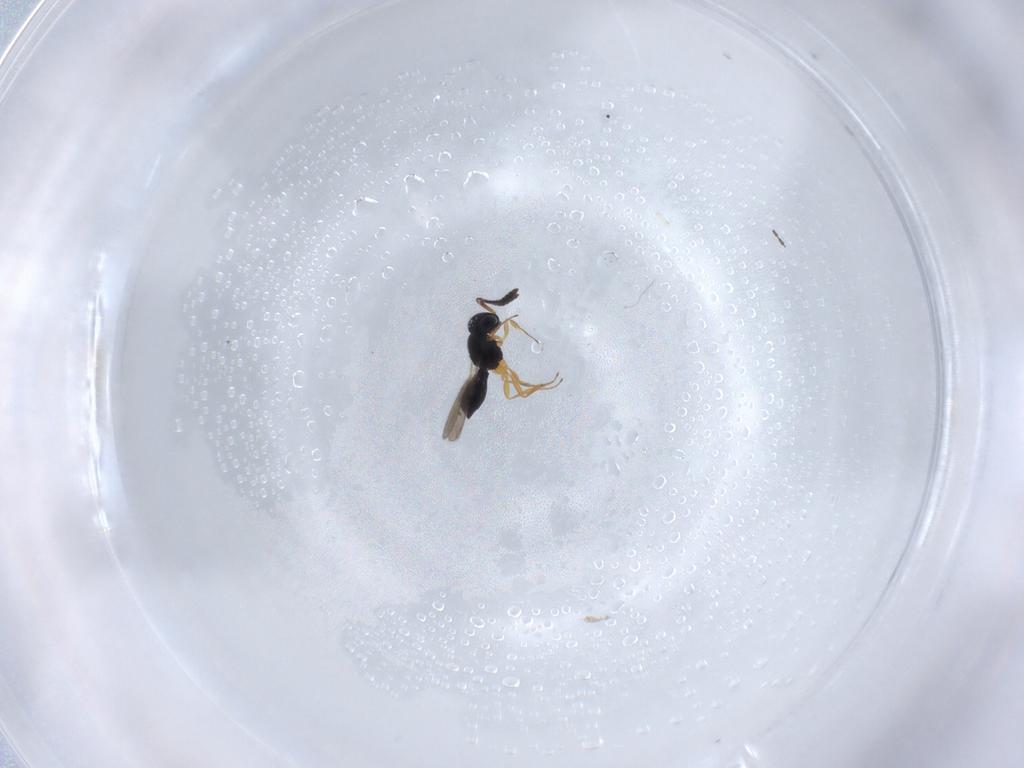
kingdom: Animalia
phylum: Arthropoda
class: Insecta
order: Hymenoptera
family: Scelionidae
